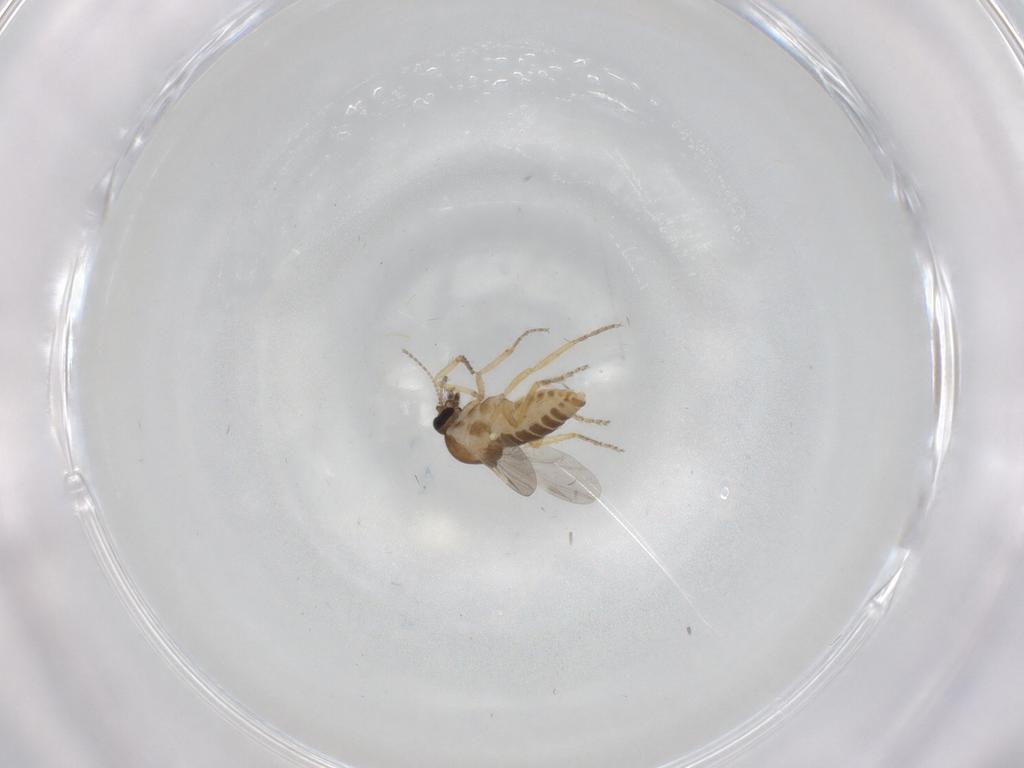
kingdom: Animalia
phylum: Arthropoda
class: Insecta
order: Diptera
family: Ceratopogonidae
